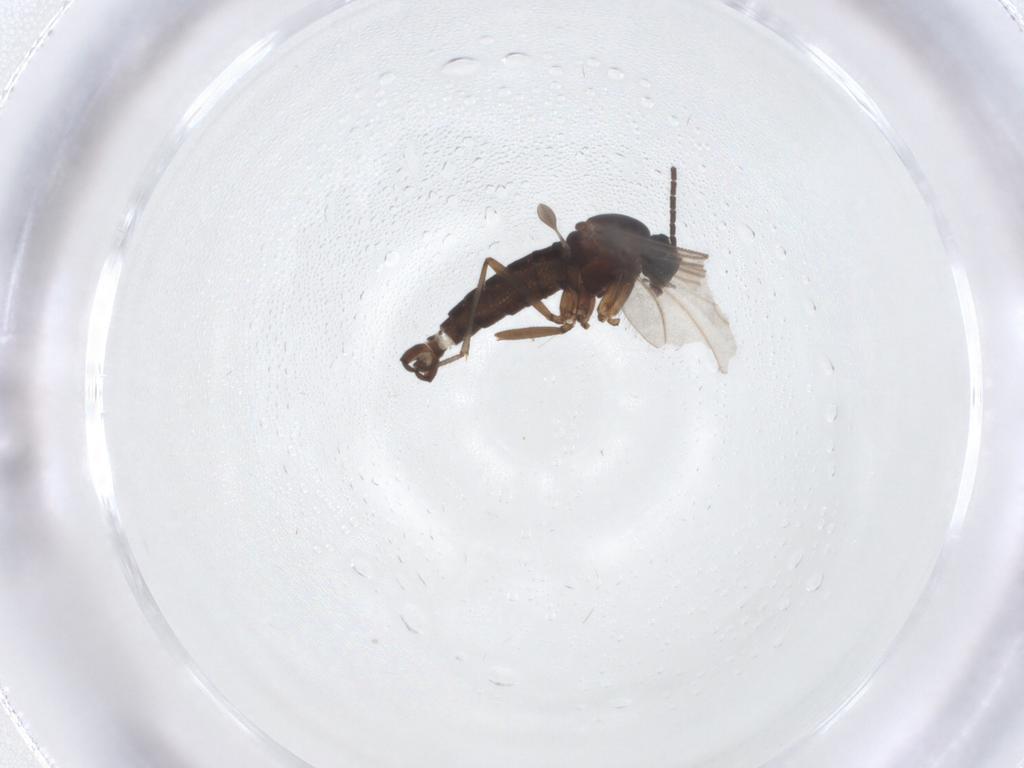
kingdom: Animalia
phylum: Arthropoda
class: Insecta
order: Diptera
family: Sciaridae
